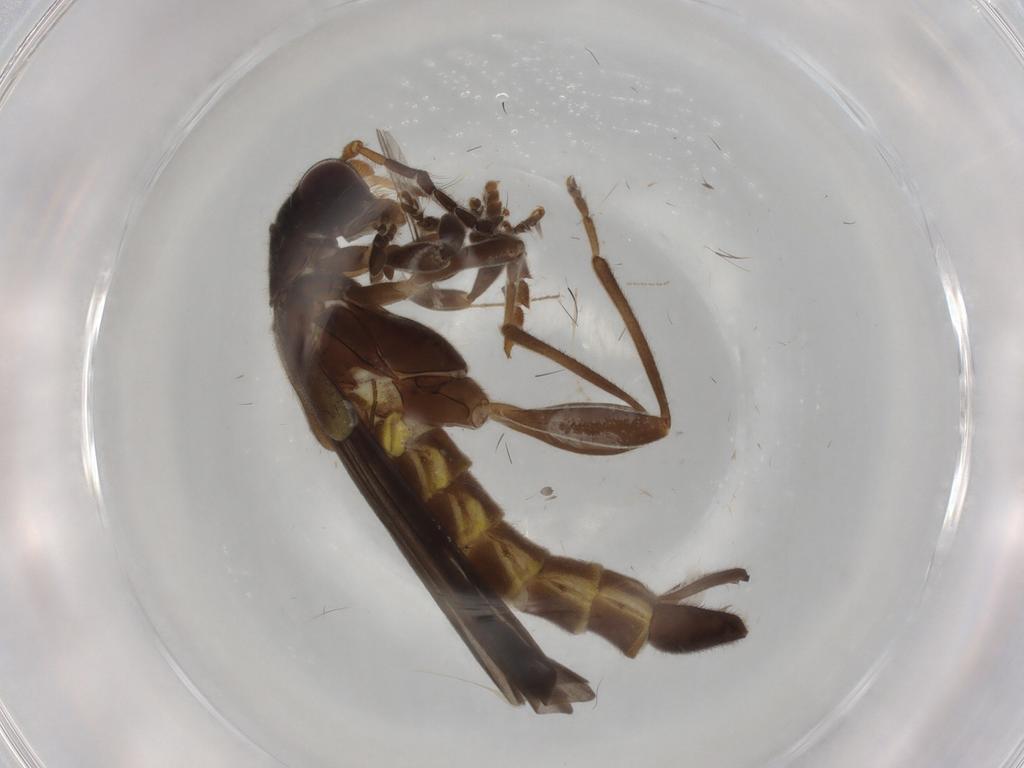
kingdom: Animalia
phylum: Arthropoda
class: Insecta
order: Coleoptera
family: Cantharidae
